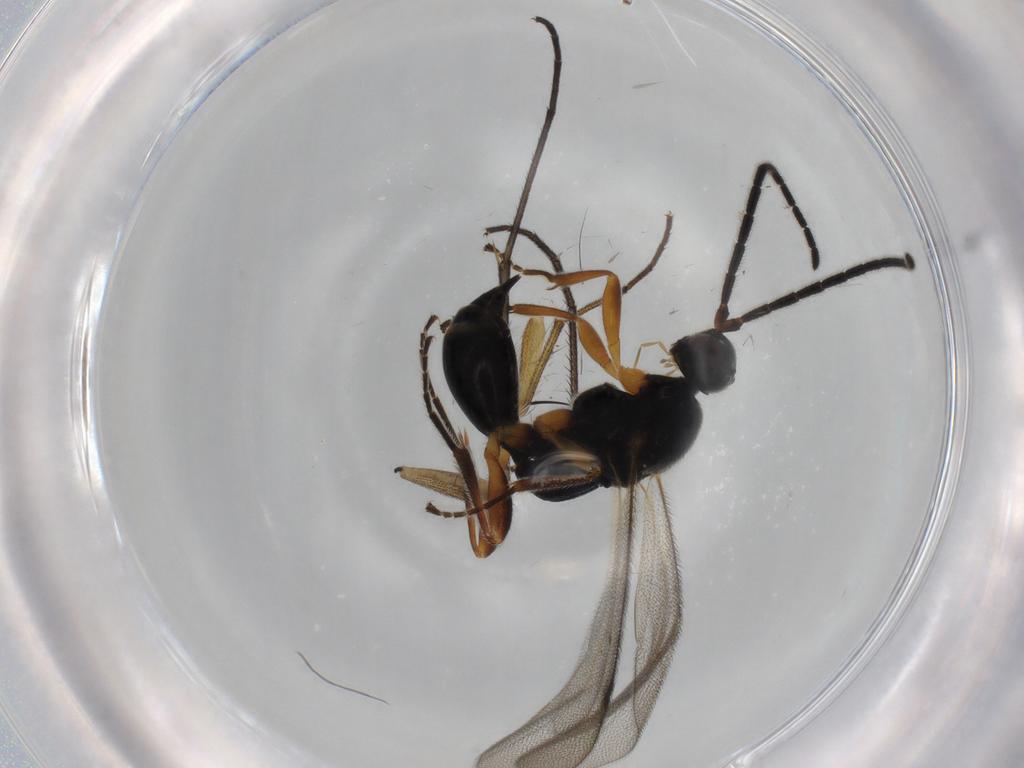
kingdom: Animalia
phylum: Arthropoda
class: Insecta
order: Hymenoptera
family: Proctotrupidae
